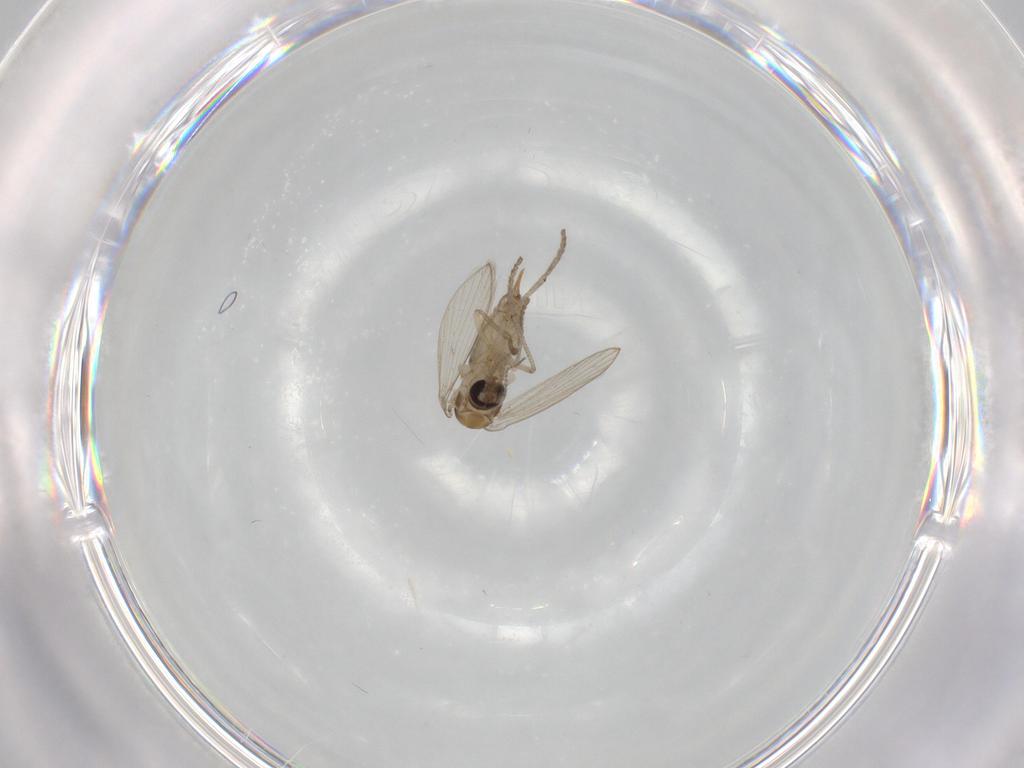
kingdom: Animalia
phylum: Arthropoda
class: Insecta
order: Diptera
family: Psychodidae
